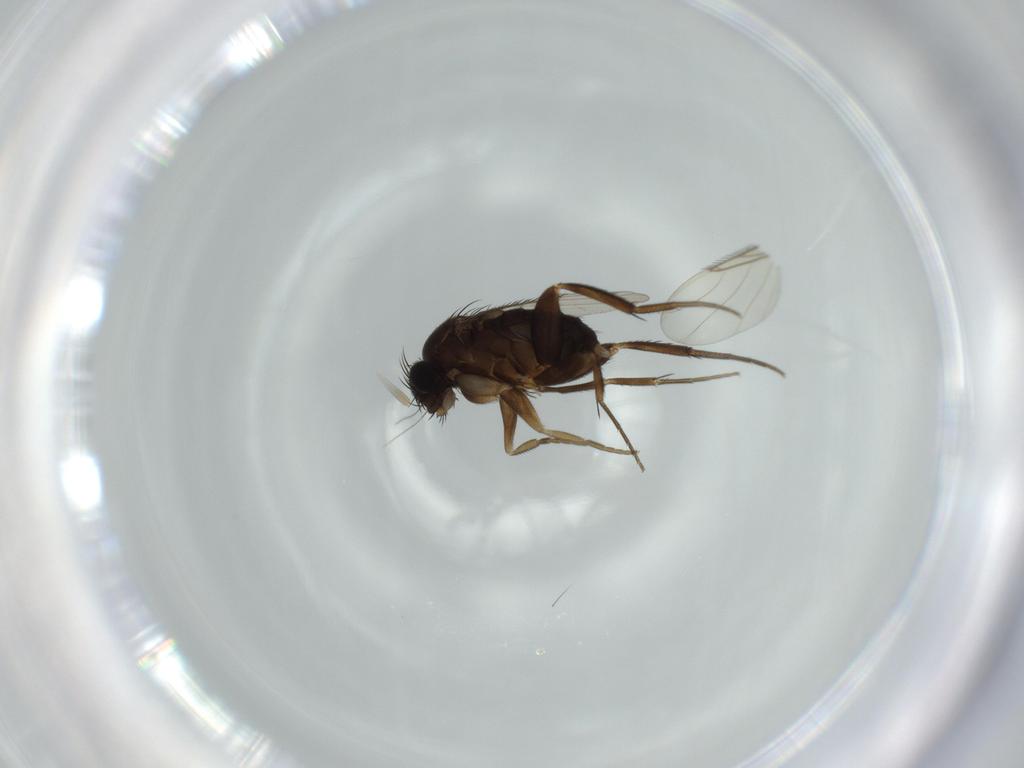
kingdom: Animalia
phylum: Arthropoda
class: Insecta
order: Diptera
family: Phoridae
